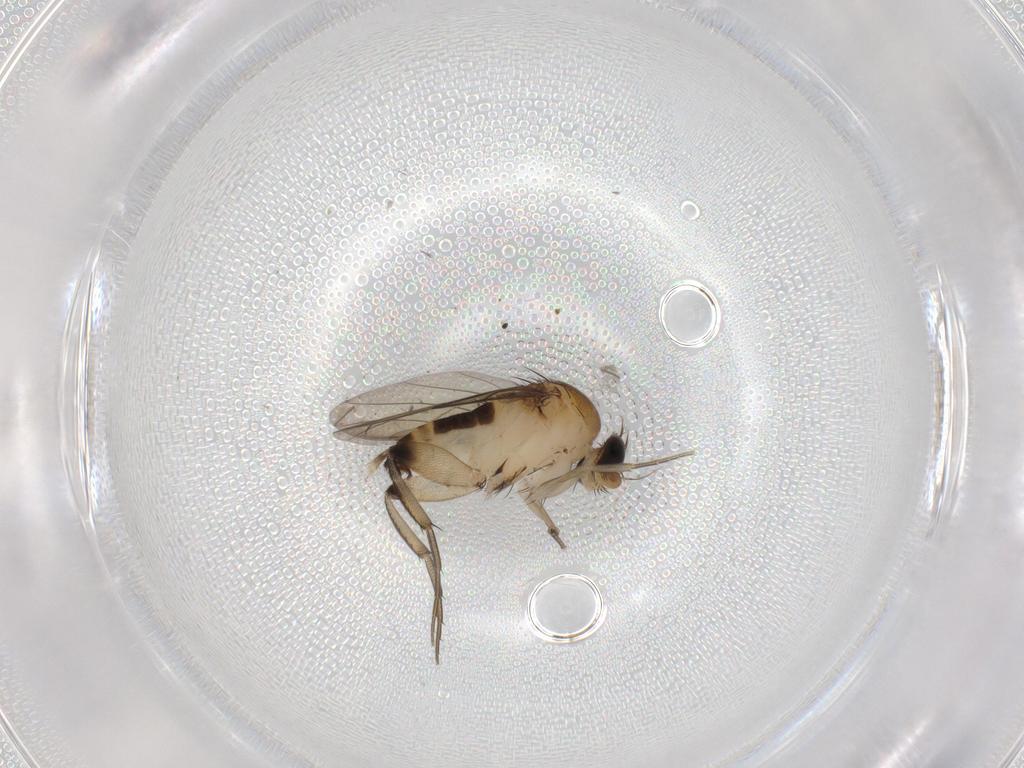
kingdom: Animalia
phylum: Arthropoda
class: Insecta
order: Diptera
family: Phoridae
